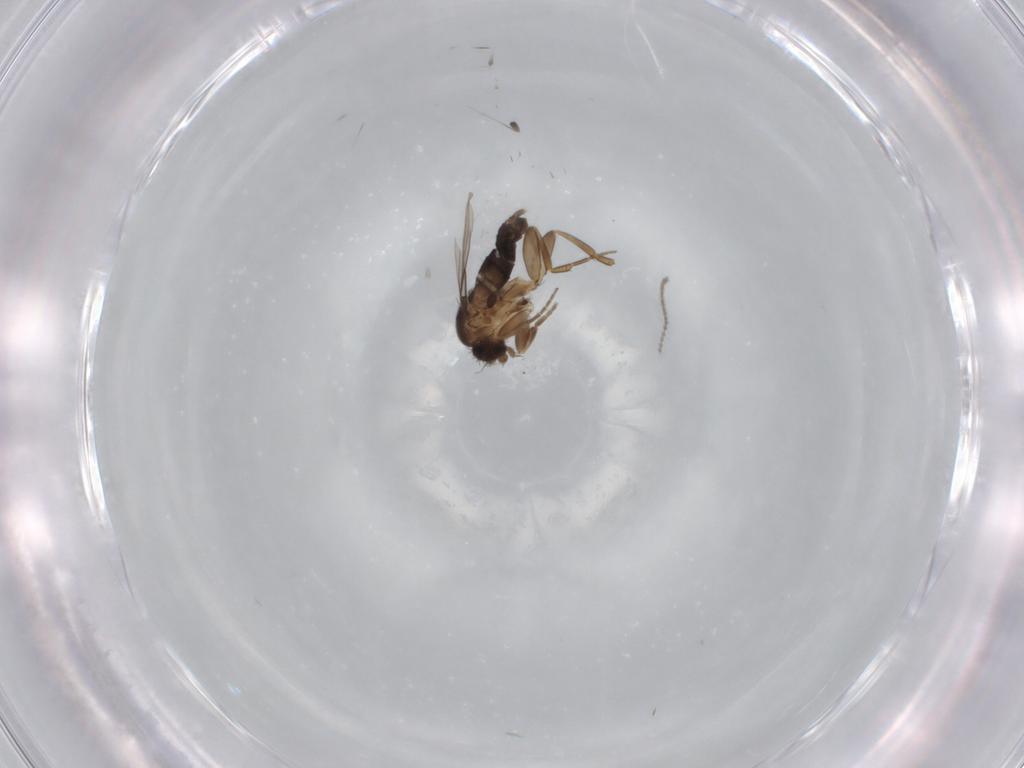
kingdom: Animalia
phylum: Arthropoda
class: Insecta
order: Diptera
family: Phoridae
